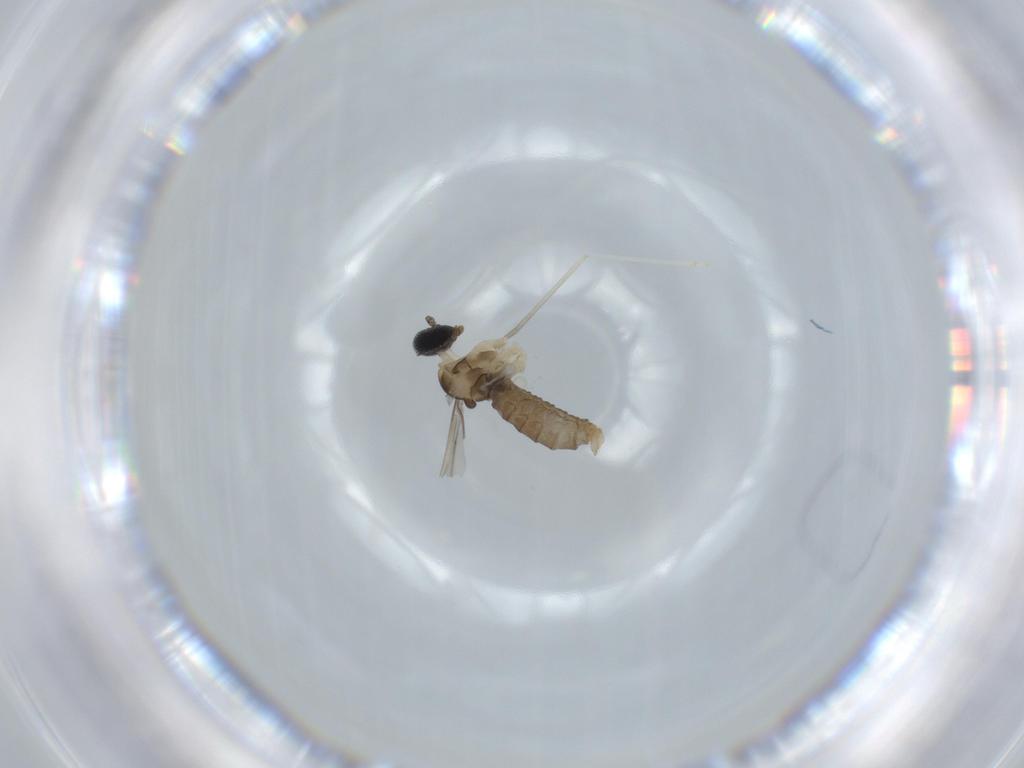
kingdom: Animalia
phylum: Arthropoda
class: Insecta
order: Diptera
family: Cecidomyiidae
